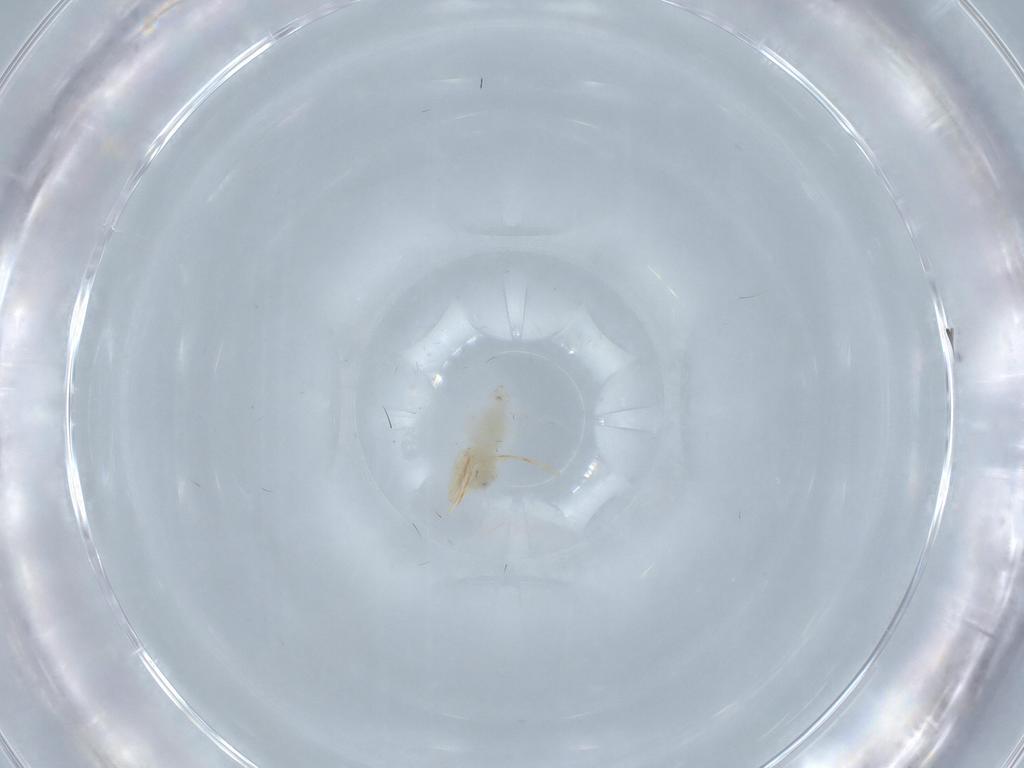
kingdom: Animalia
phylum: Arthropoda
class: Insecta
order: Hemiptera
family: Aleyrodidae
